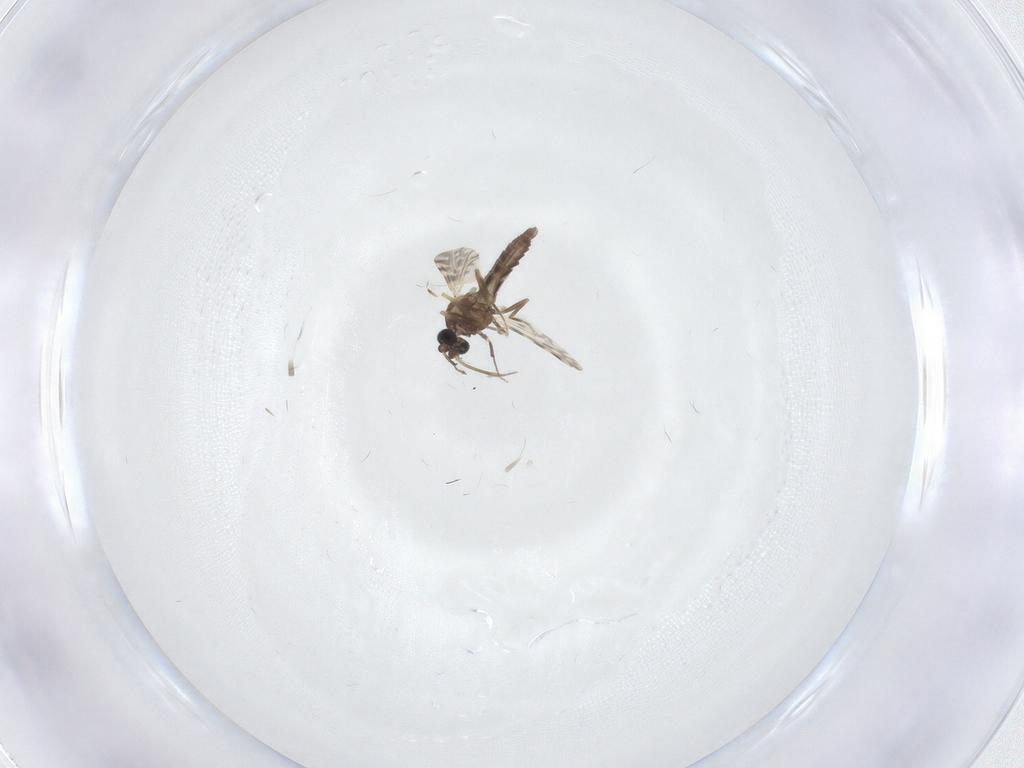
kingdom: Animalia
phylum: Arthropoda
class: Insecta
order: Diptera
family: Ceratopogonidae
